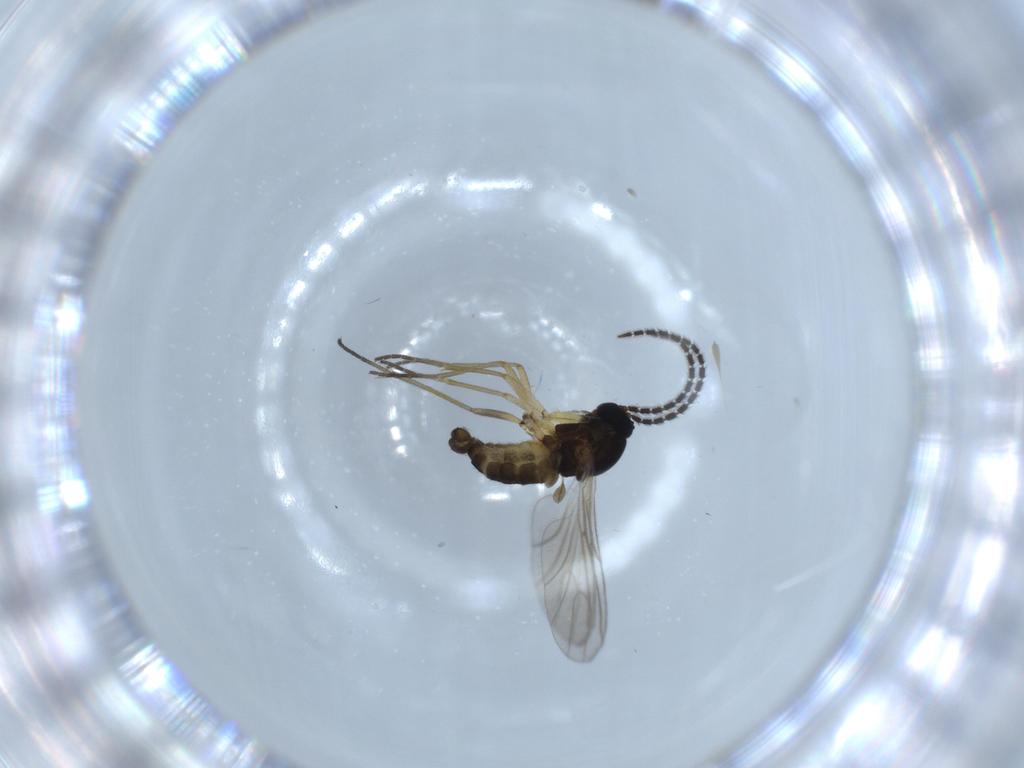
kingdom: Animalia
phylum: Arthropoda
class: Insecta
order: Diptera
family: Sciaridae
